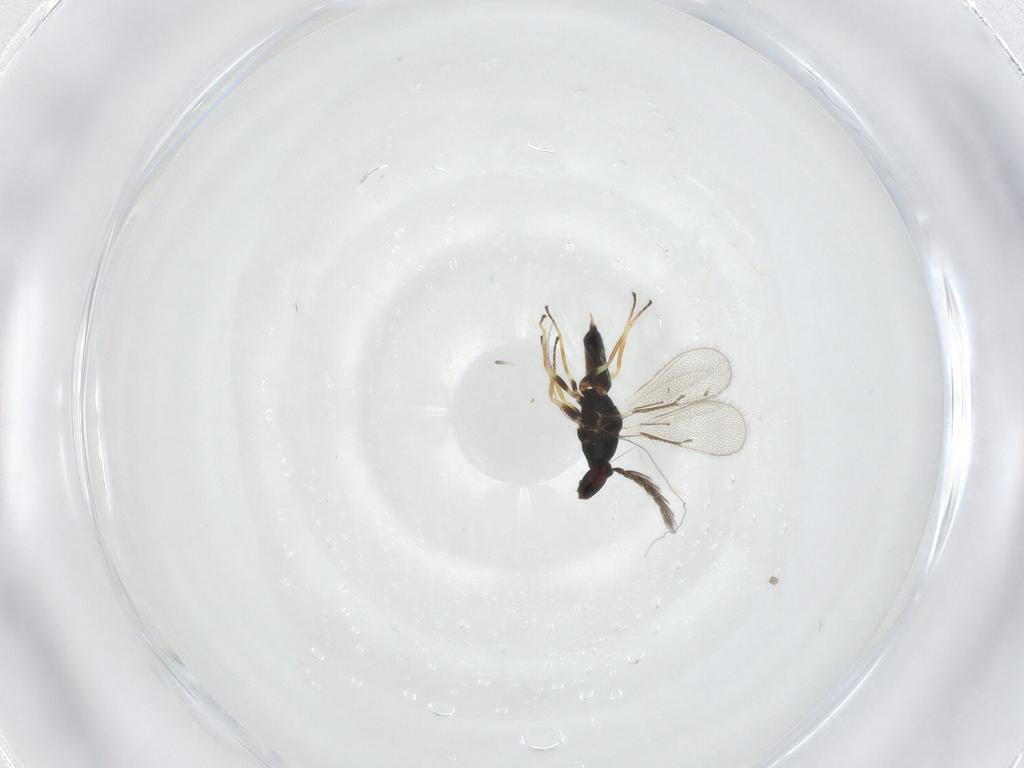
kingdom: Animalia
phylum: Arthropoda
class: Insecta
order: Hymenoptera
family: Eulophidae
